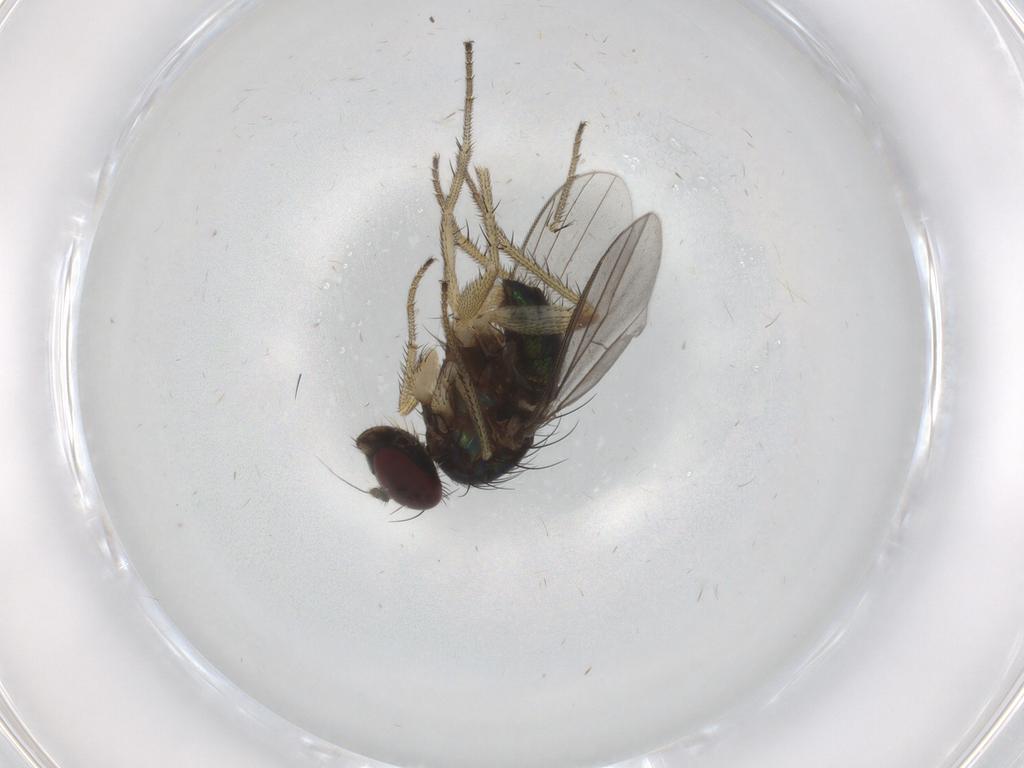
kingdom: Animalia
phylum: Arthropoda
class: Insecta
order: Diptera
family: Dolichopodidae
